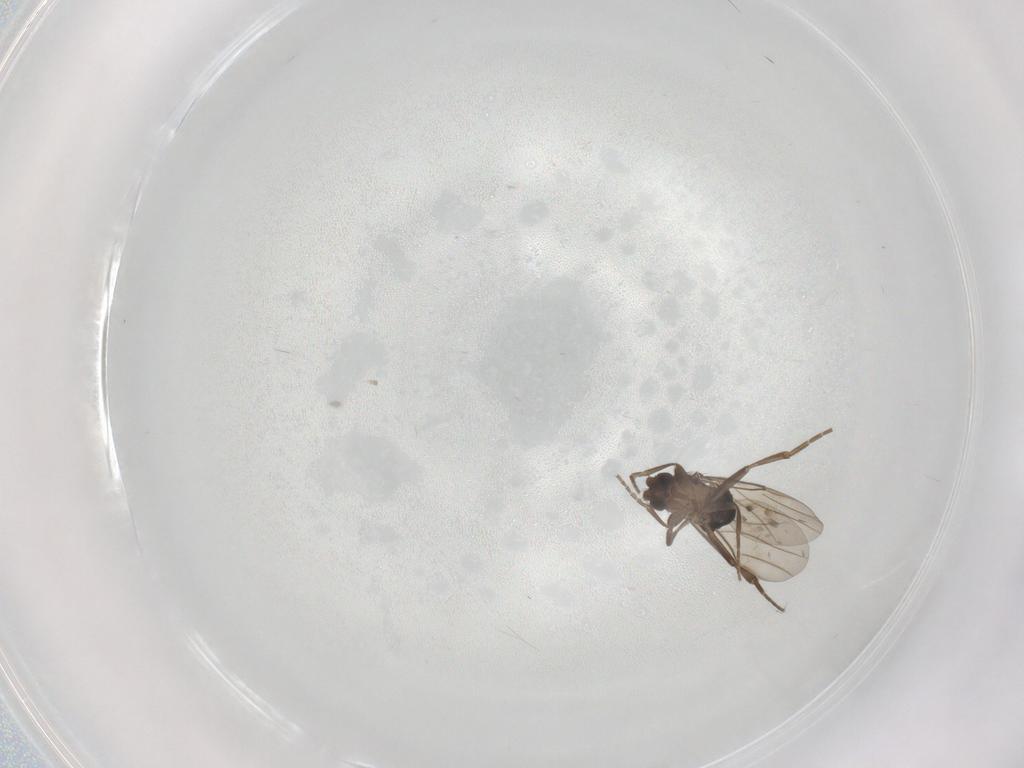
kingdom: Animalia
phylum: Arthropoda
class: Insecta
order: Diptera
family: Phoridae
